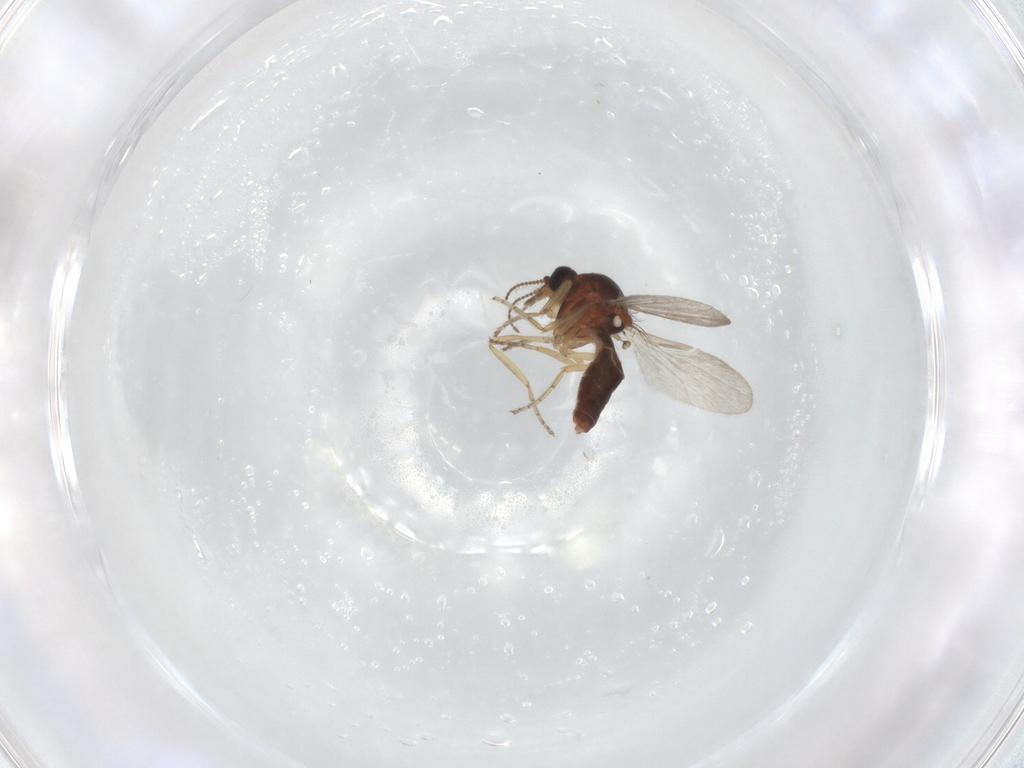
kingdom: Animalia
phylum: Arthropoda
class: Insecta
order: Diptera
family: Ceratopogonidae
